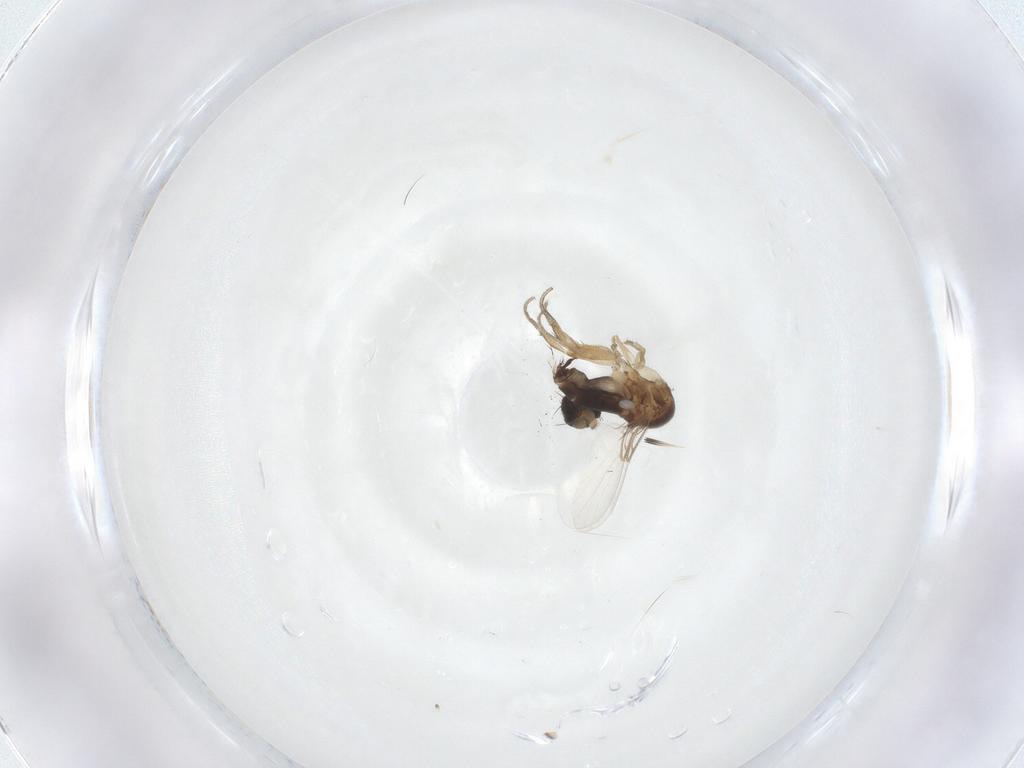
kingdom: Animalia
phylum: Arthropoda
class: Insecta
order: Diptera
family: Phoridae
